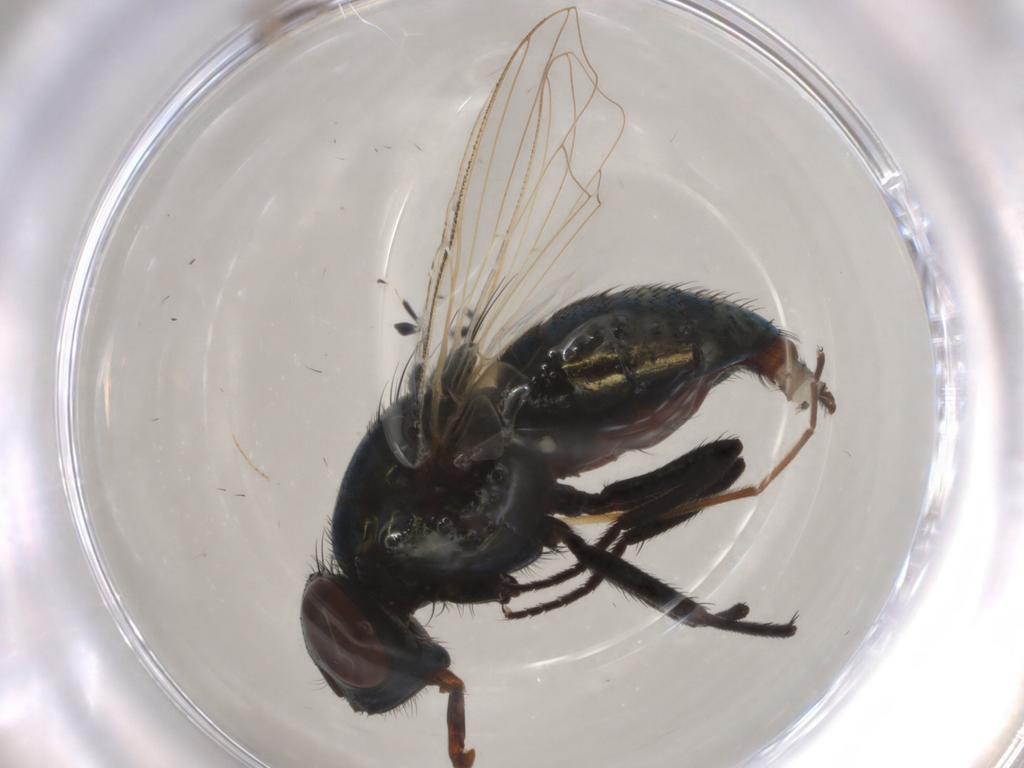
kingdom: Animalia
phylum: Arthropoda
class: Insecta
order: Diptera
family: Muscidae
